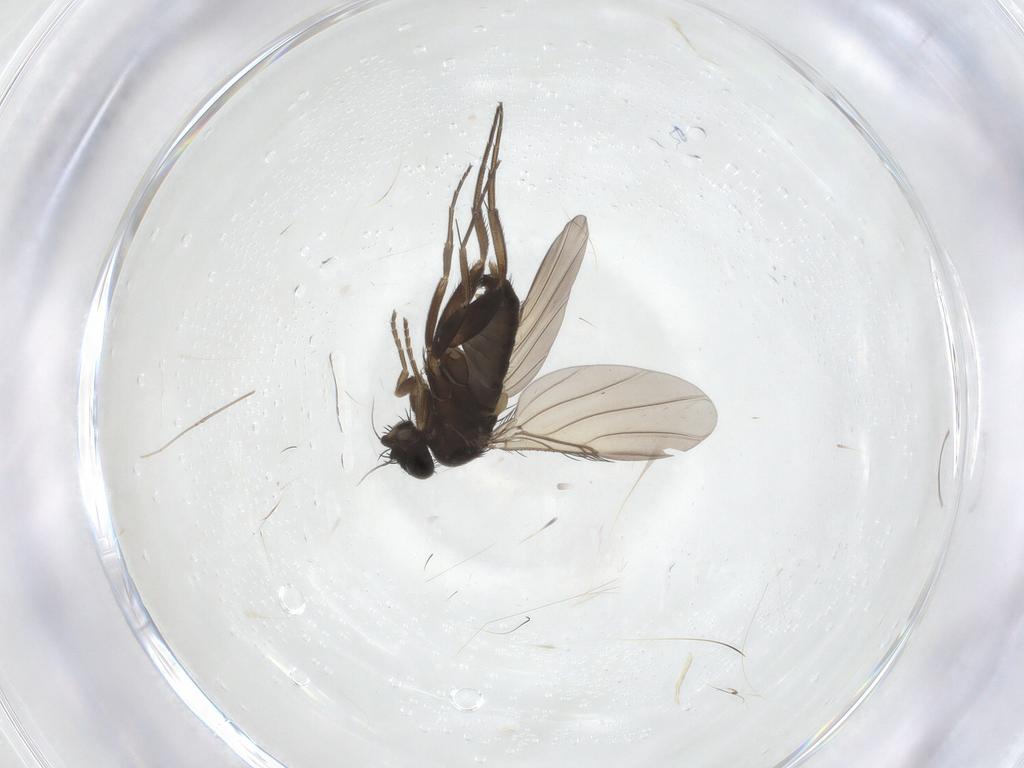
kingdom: Animalia
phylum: Arthropoda
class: Insecta
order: Diptera
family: Phoridae
